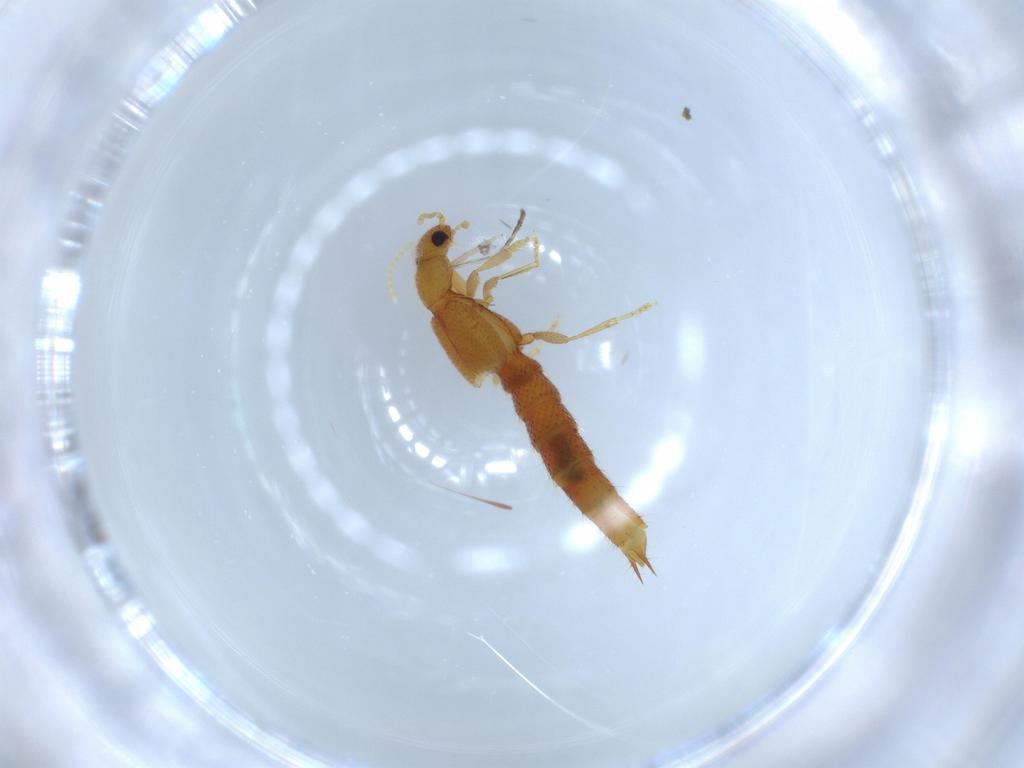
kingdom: Animalia
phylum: Arthropoda
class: Insecta
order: Coleoptera
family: Staphylinidae
